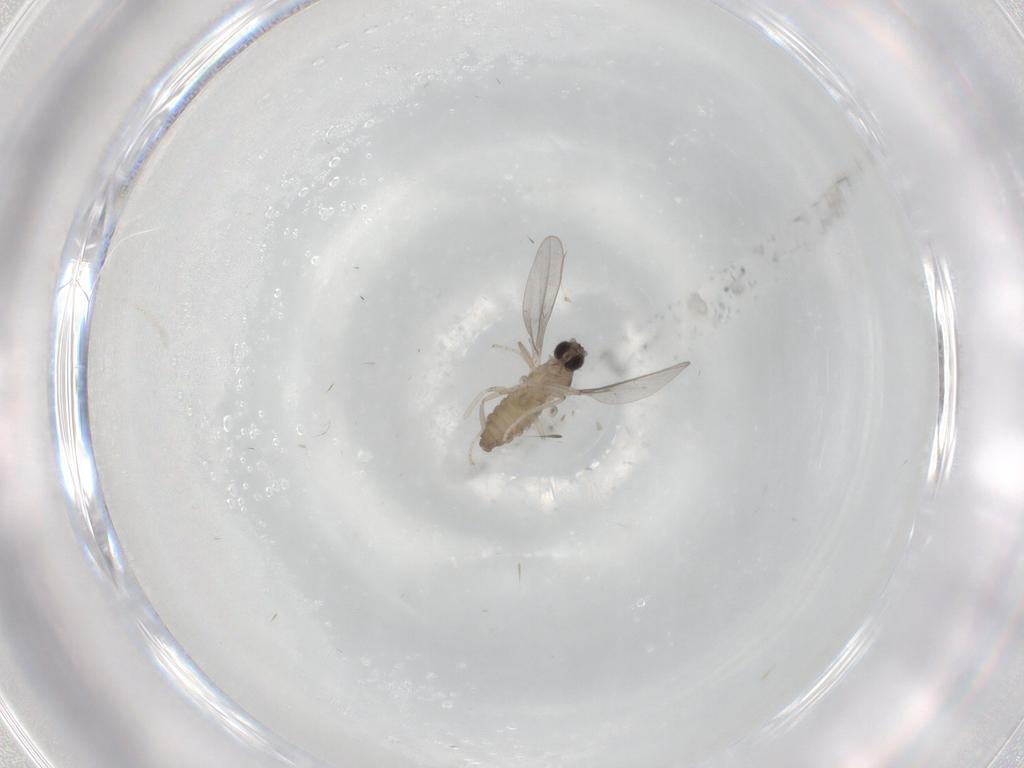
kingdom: Animalia
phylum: Arthropoda
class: Insecta
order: Diptera
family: Cecidomyiidae
